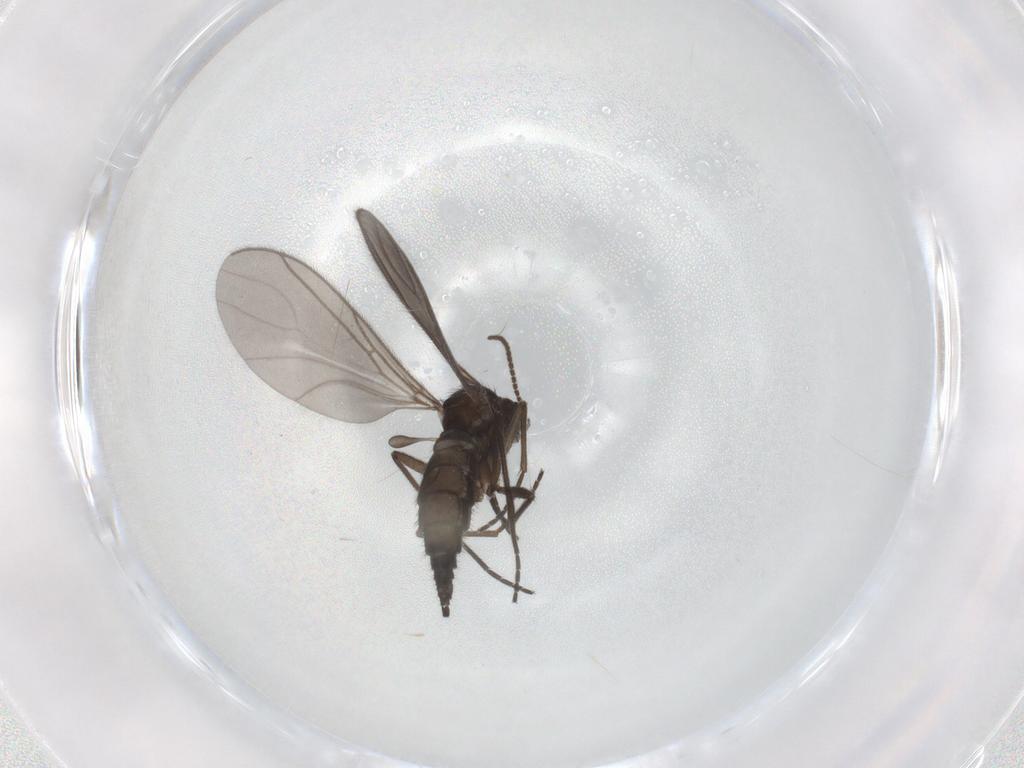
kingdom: Animalia
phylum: Arthropoda
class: Insecta
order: Diptera
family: Sciaridae
